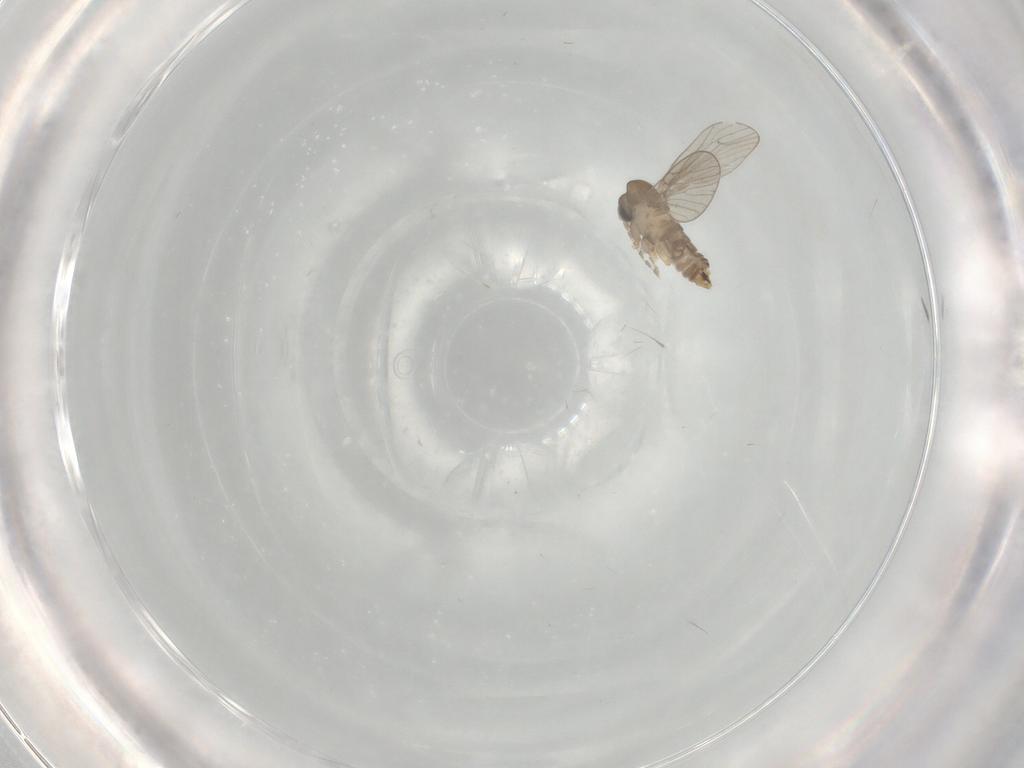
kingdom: Animalia
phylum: Arthropoda
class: Insecta
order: Diptera
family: Psychodidae
